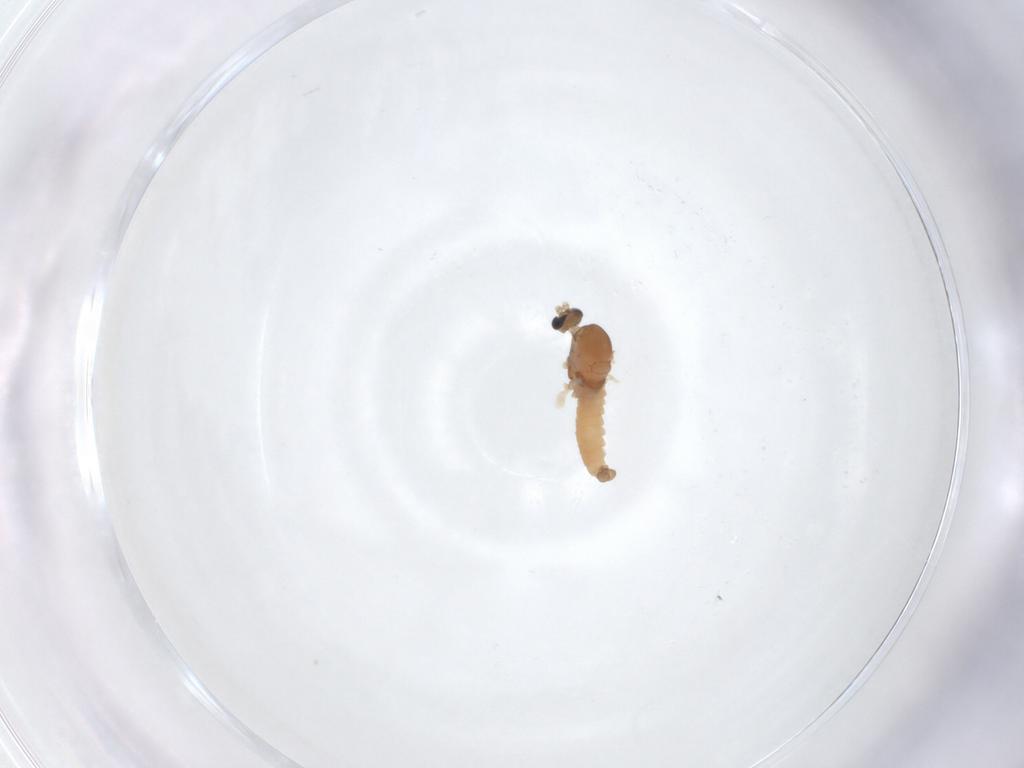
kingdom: Animalia
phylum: Arthropoda
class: Insecta
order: Diptera
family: Cecidomyiidae
